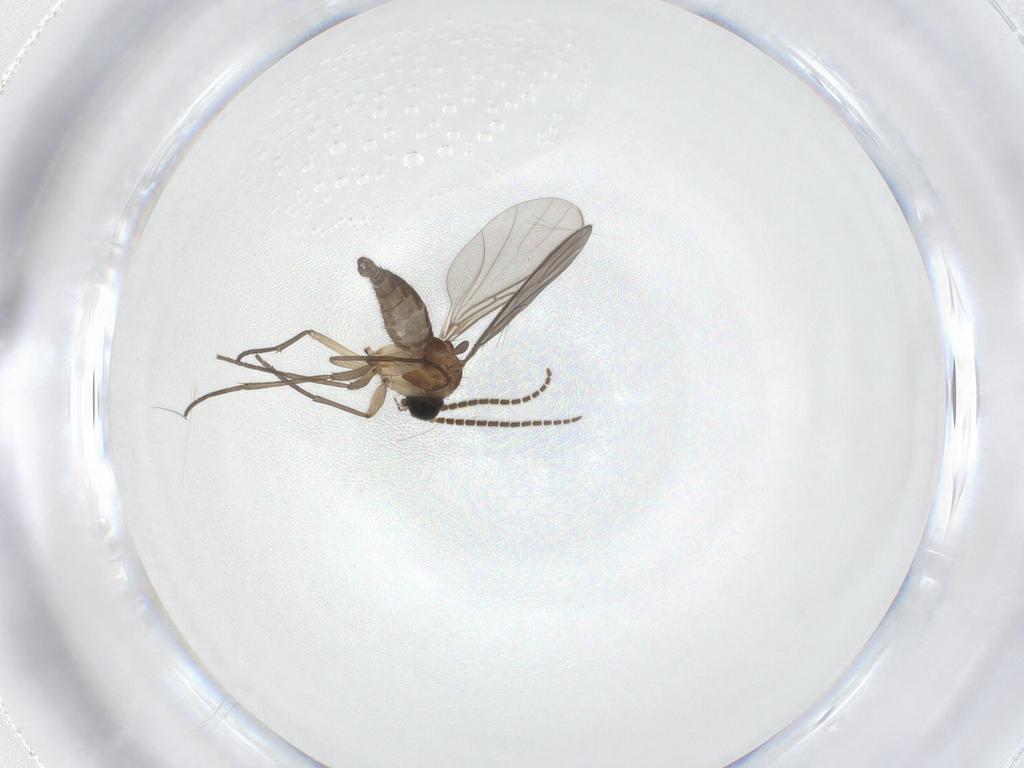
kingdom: Animalia
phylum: Arthropoda
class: Insecta
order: Diptera
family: Sciaridae
